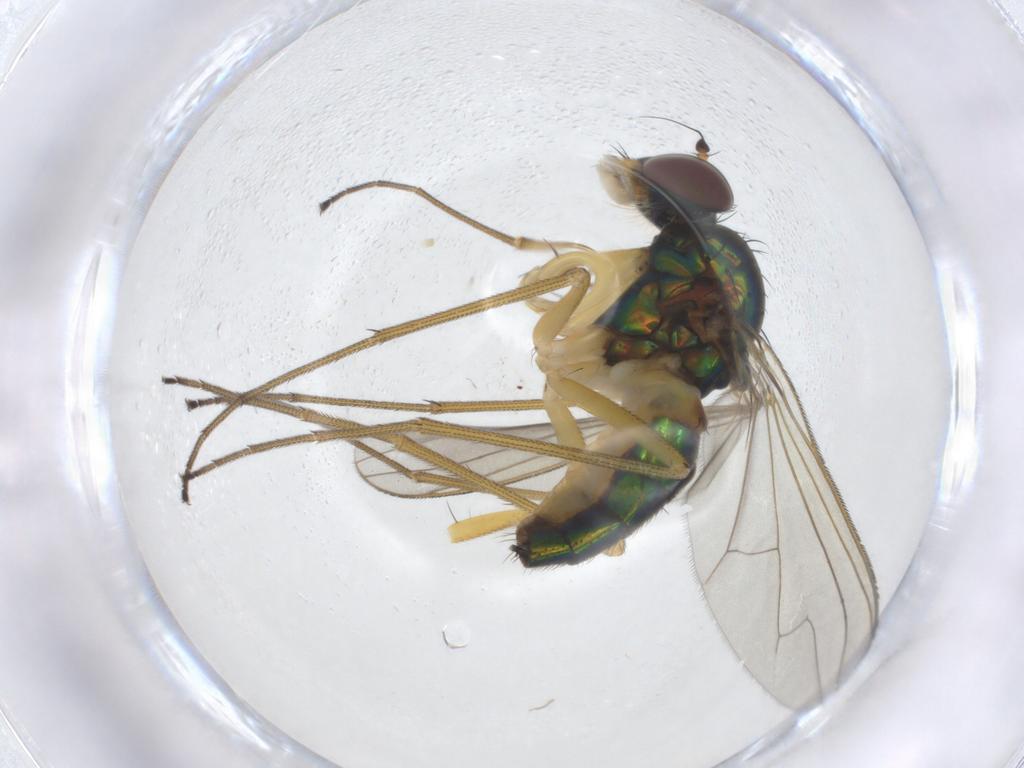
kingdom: Animalia
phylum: Arthropoda
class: Insecta
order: Diptera
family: Dolichopodidae
